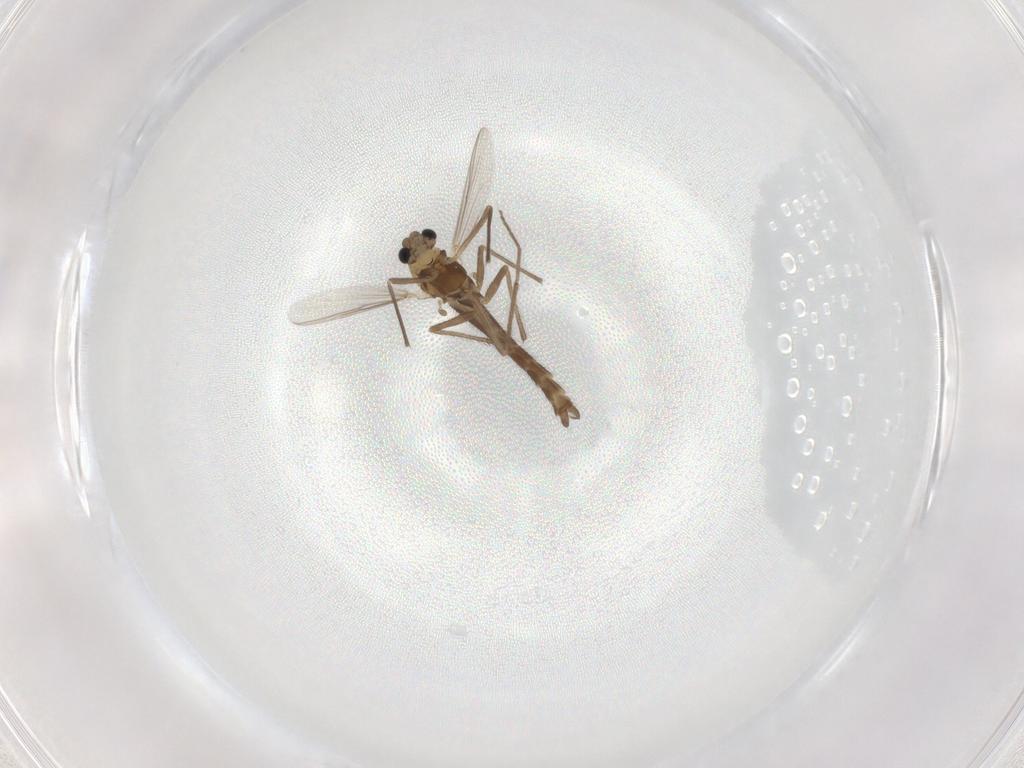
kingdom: Animalia
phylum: Arthropoda
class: Insecta
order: Diptera
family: Chironomidae
